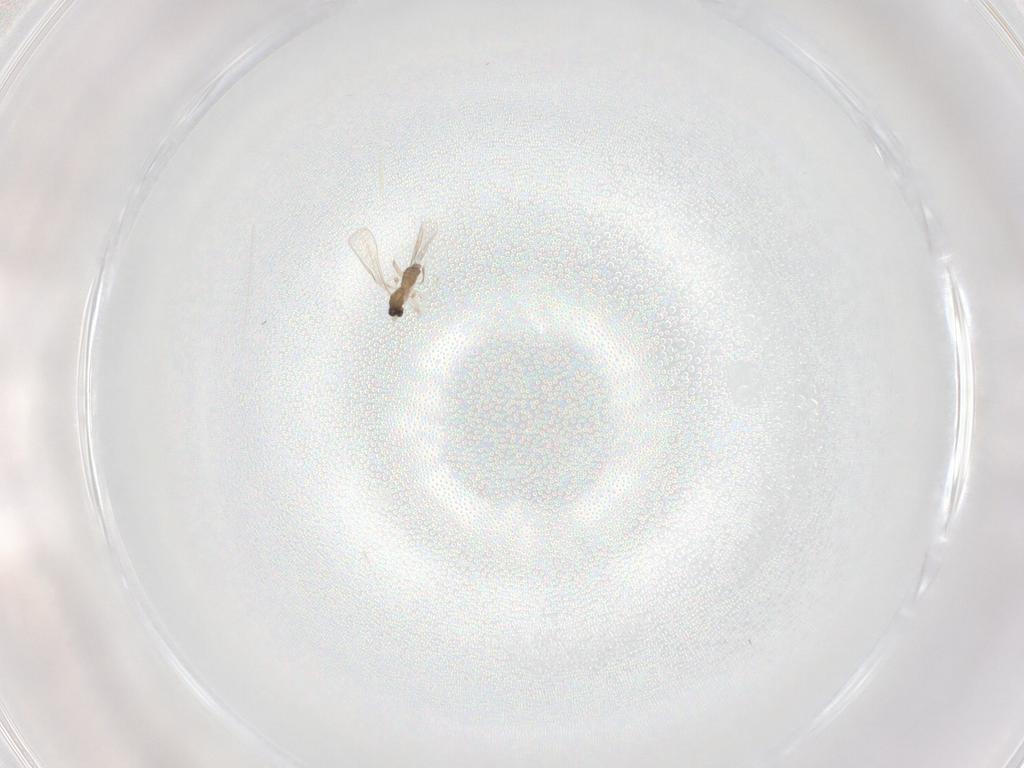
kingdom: Animalia
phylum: Arthropoda
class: Insecta
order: Diptera
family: Cecidomyiidae
